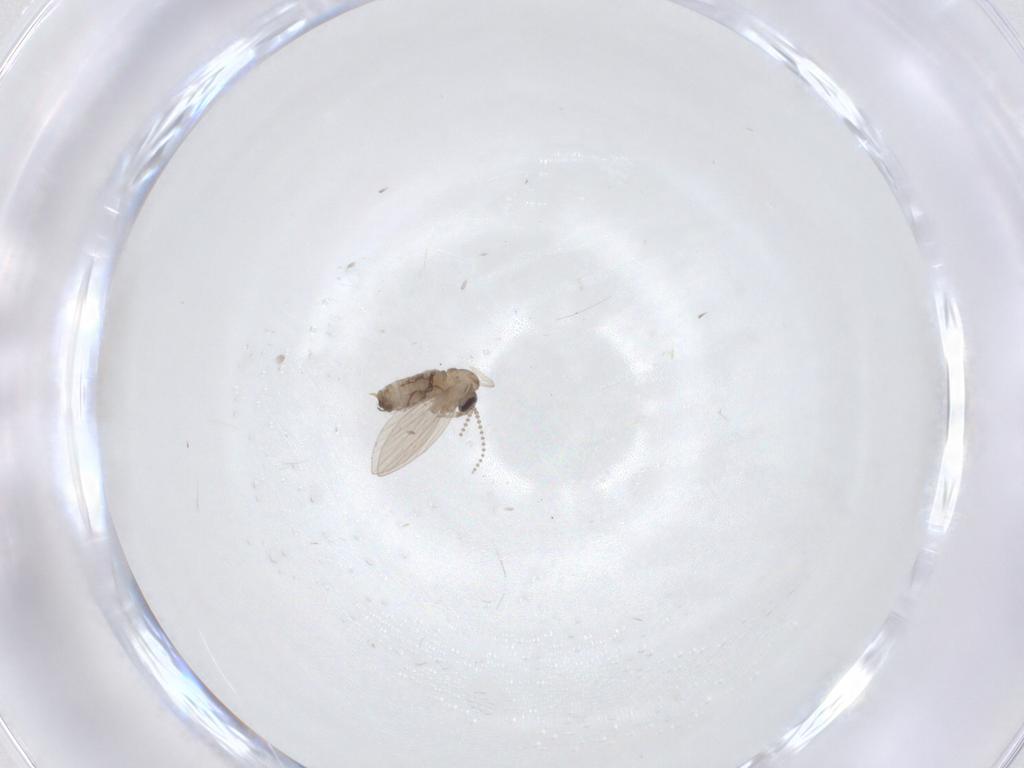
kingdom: Animalia
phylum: Arthropoda
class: Insecta
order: Diptera
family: Psychodidae
